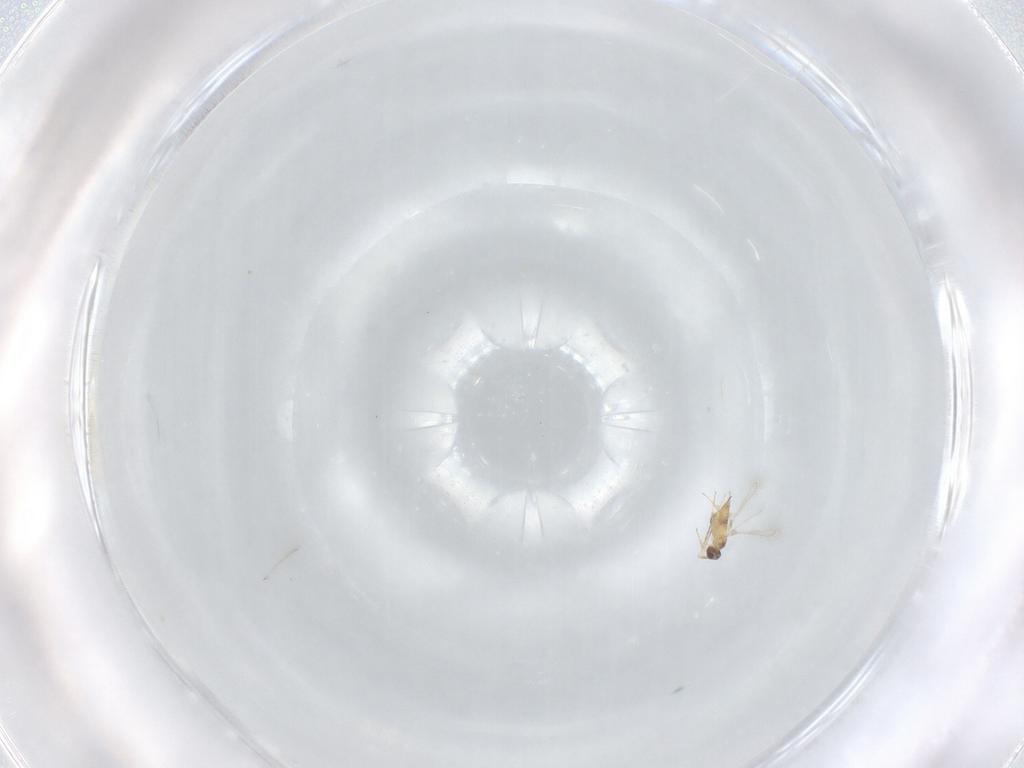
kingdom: Animalia
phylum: Arthropoda
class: Insecta
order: Hymenoptera
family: Mymaridae
